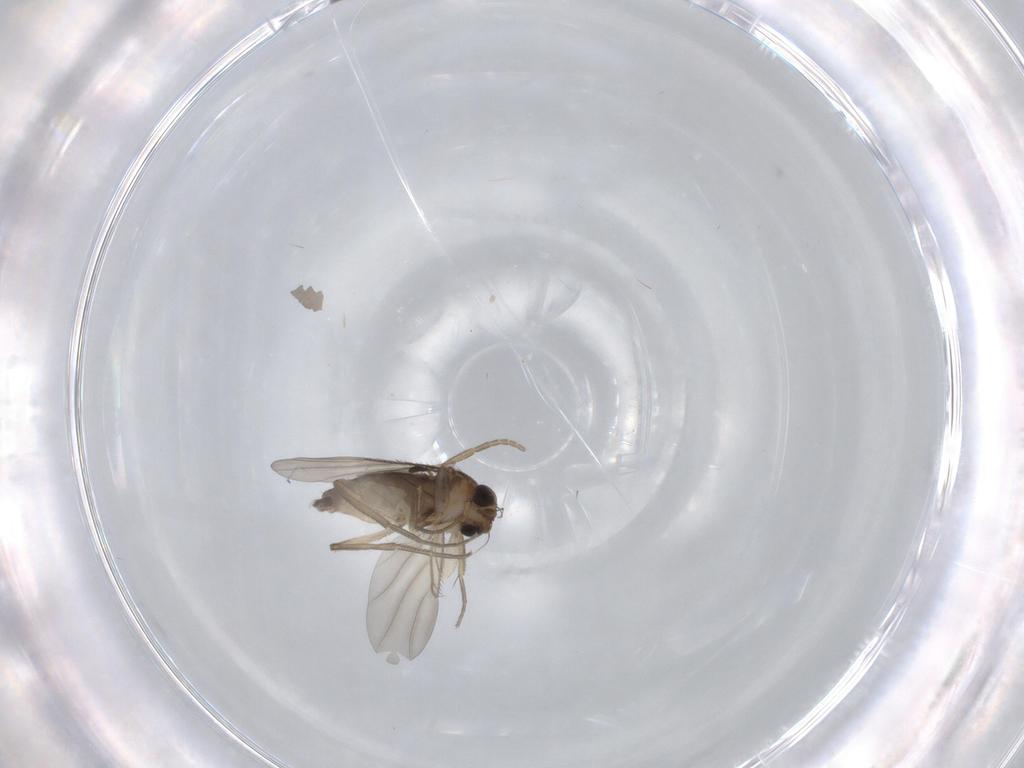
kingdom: Animalia
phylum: Arthropoda
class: Insecta
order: Diptera
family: Phoridae
